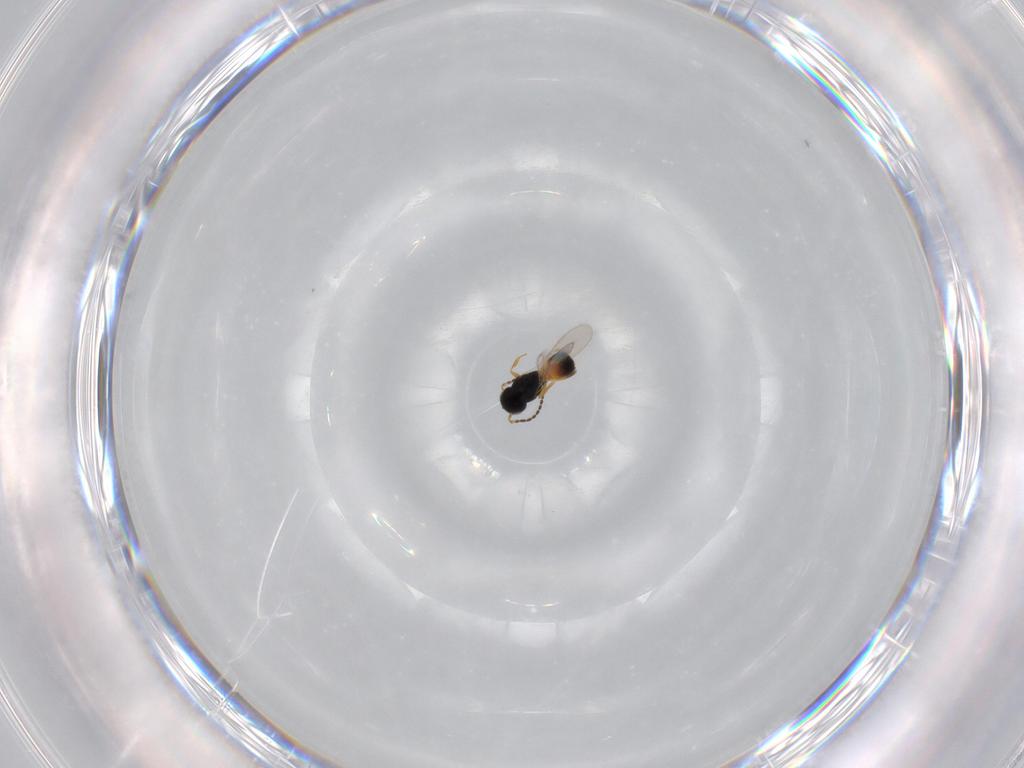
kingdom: Animalia
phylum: Arthropoda
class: Insecta
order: Hymenoptera
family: Scelionidae
